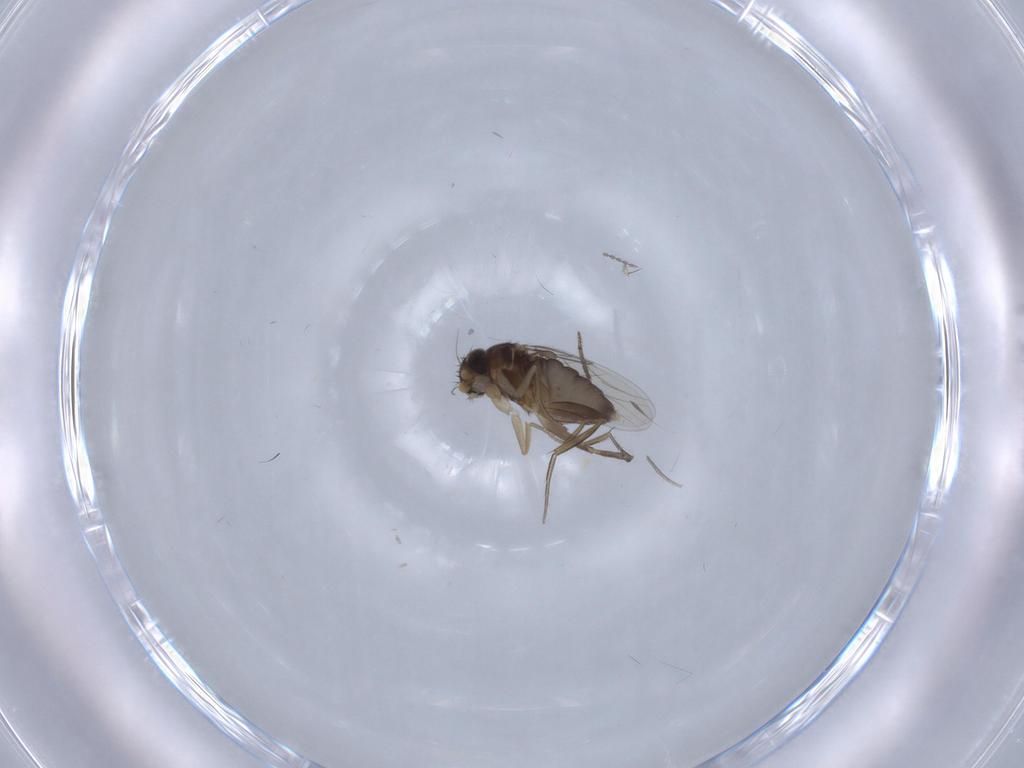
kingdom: Animalia
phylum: Arthropoda
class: Insecta
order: Diptera
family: Phoridae
